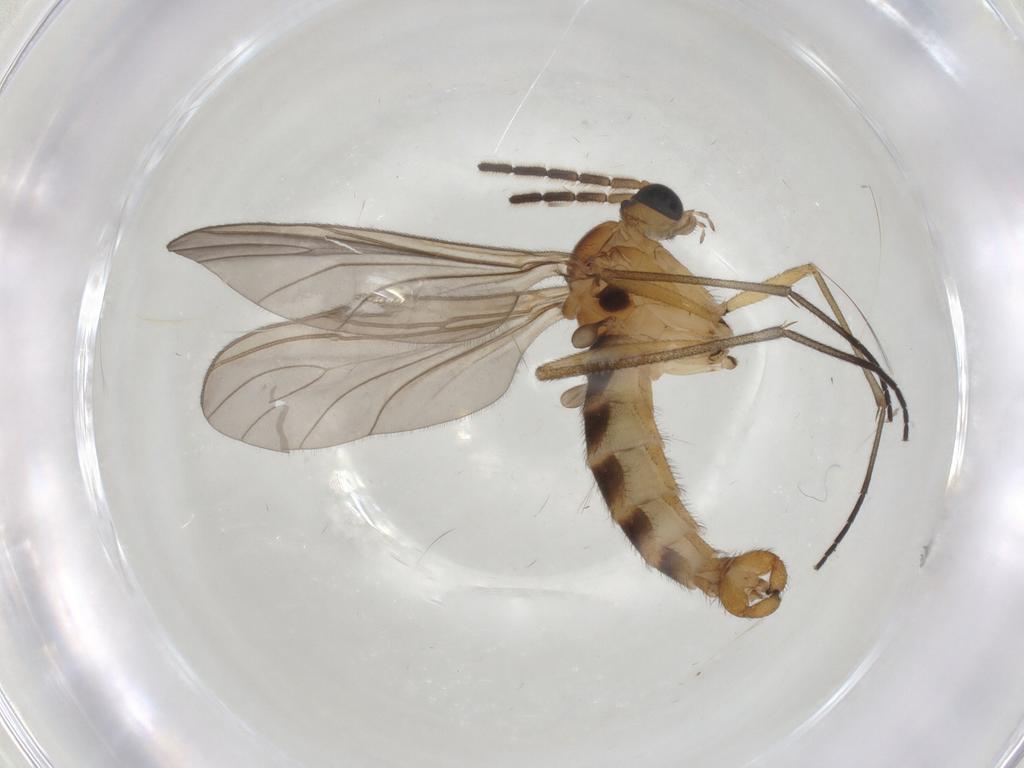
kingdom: Animalia
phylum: Arthropoda
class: Insecta
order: Diptera
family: Sciaridae
